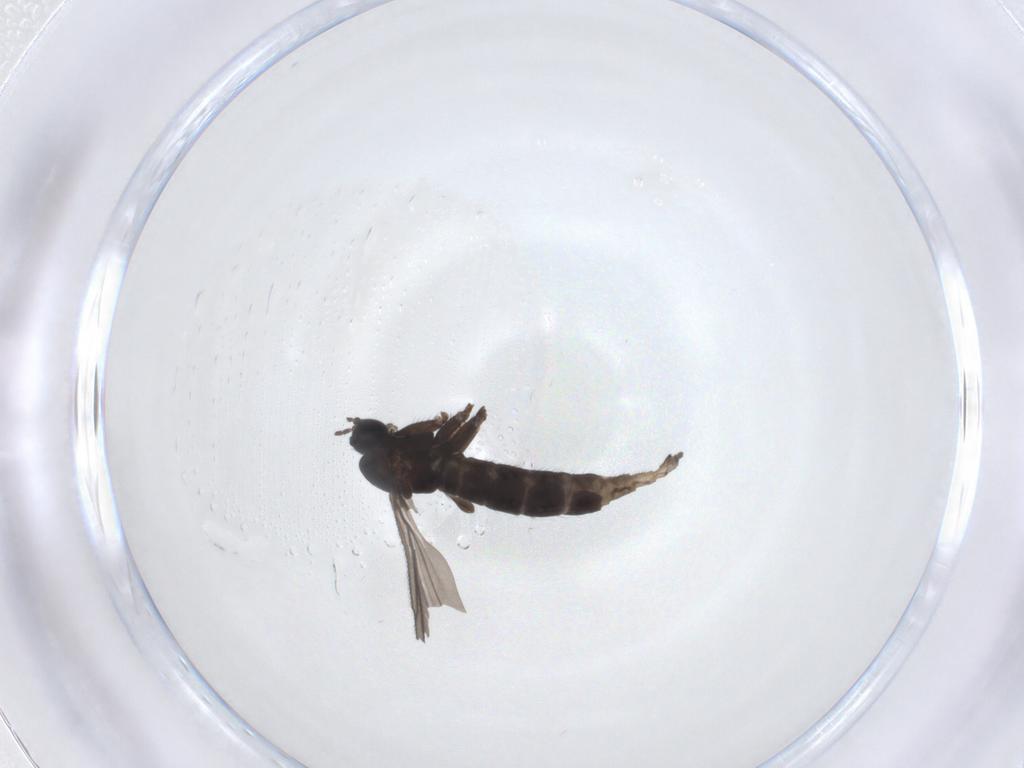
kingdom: Animalia
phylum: Arthropoda
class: Insecta
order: Diptera
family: Sciaridae
